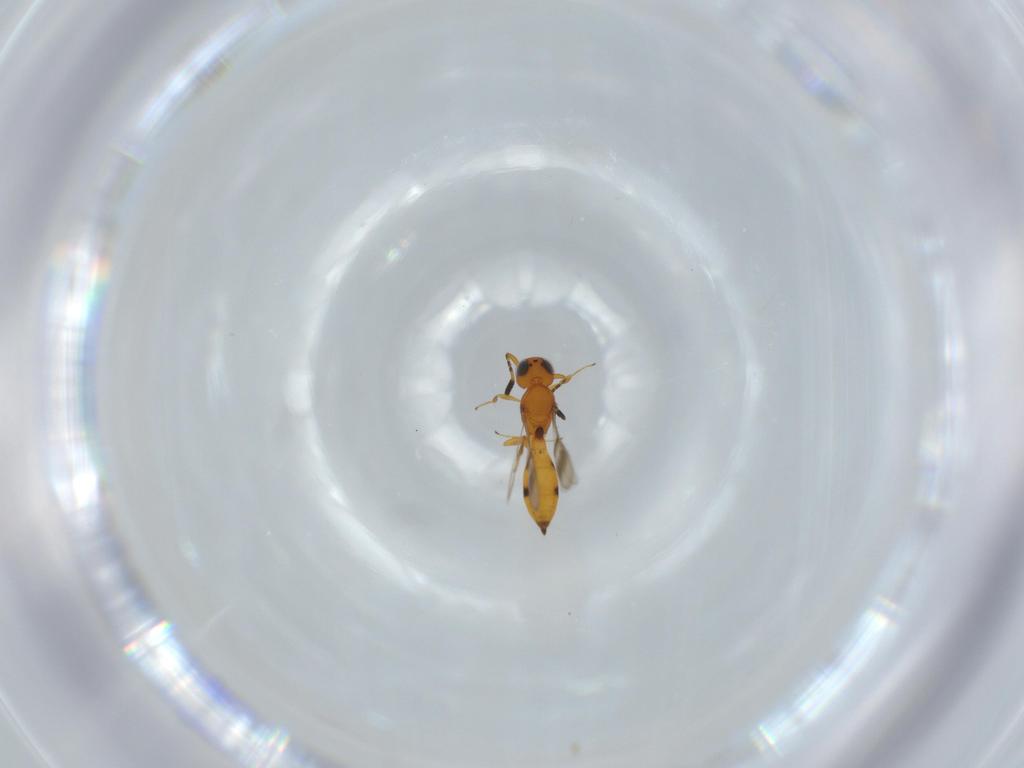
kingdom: Animalia
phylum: Arthropoda
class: Insecta
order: Hymenoptera
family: Scelionidae
